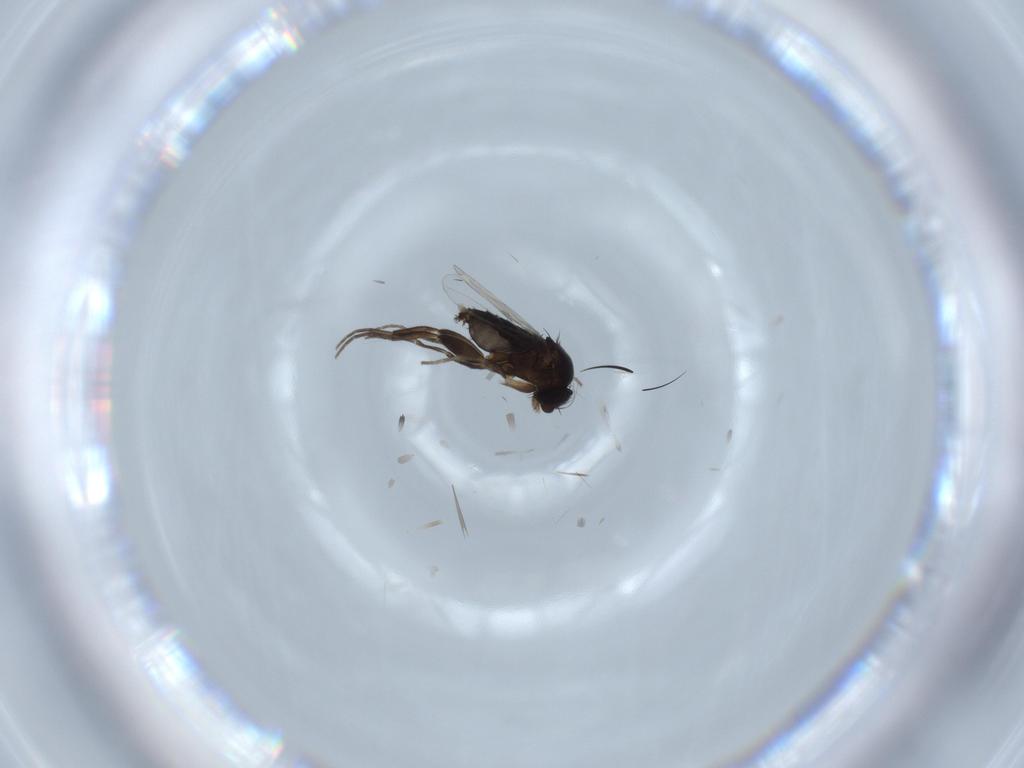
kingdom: Animalia
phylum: Arthropoda
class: Insecta
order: Diptera
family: Phoridae
